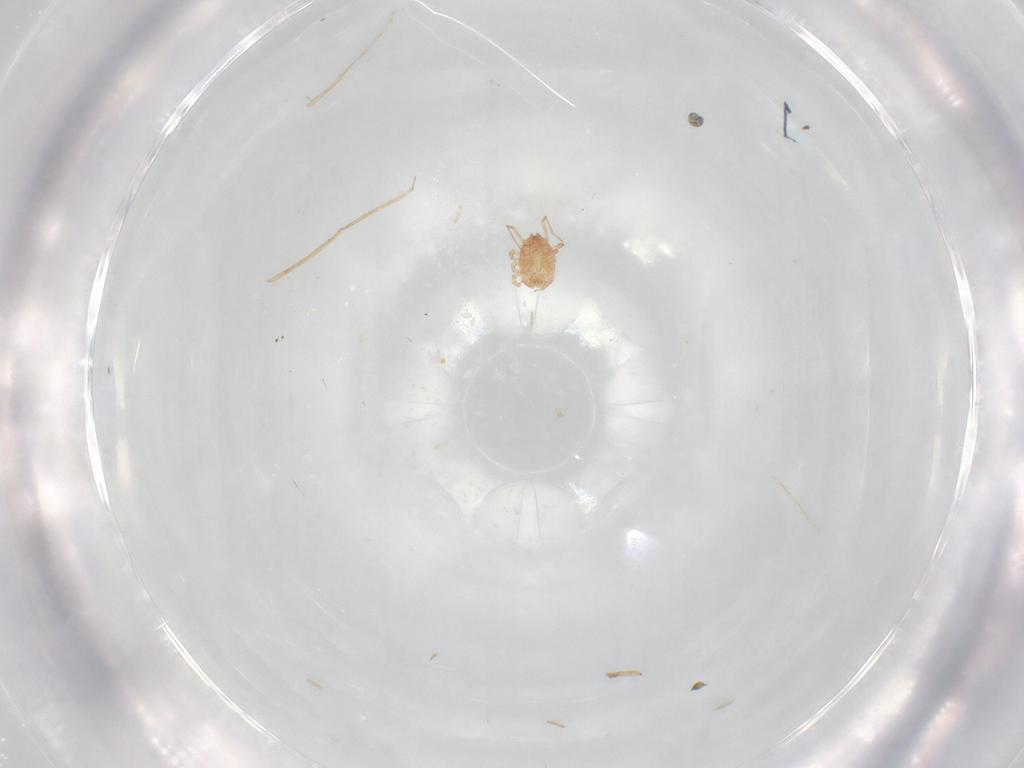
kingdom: Animalia
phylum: Arthropoda
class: Arachnida
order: Mesostigmata
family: Blattisociidae
